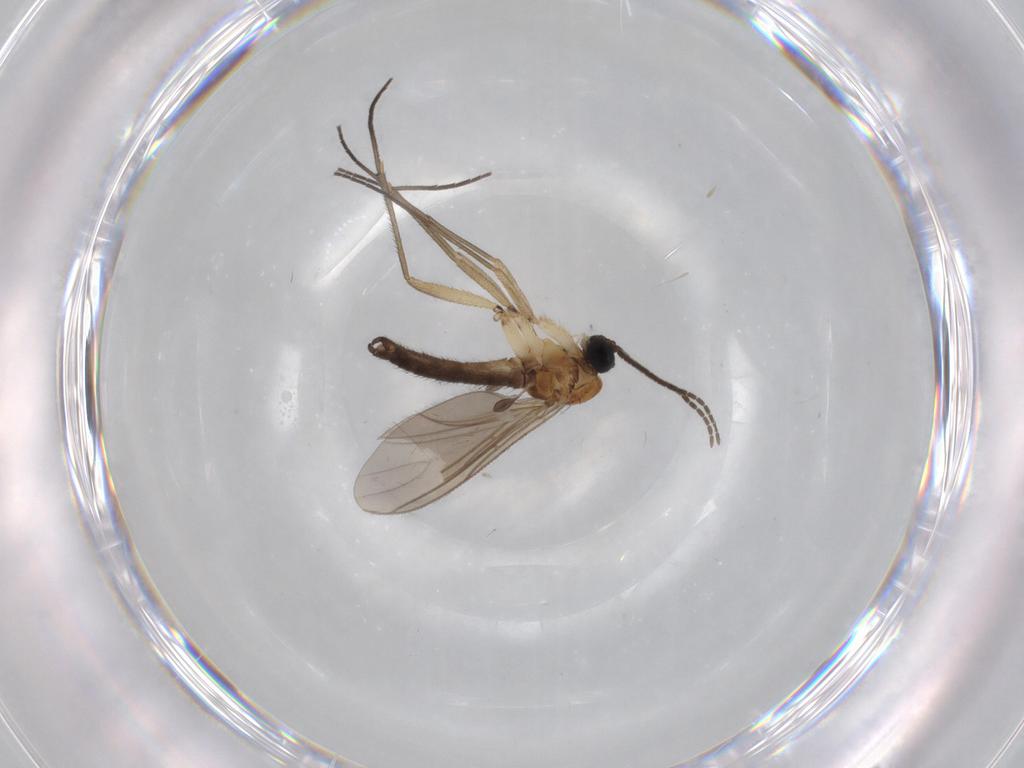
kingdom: Animalia
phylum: Arthropoda
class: Insecta
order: Diptera
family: Chironomidae
